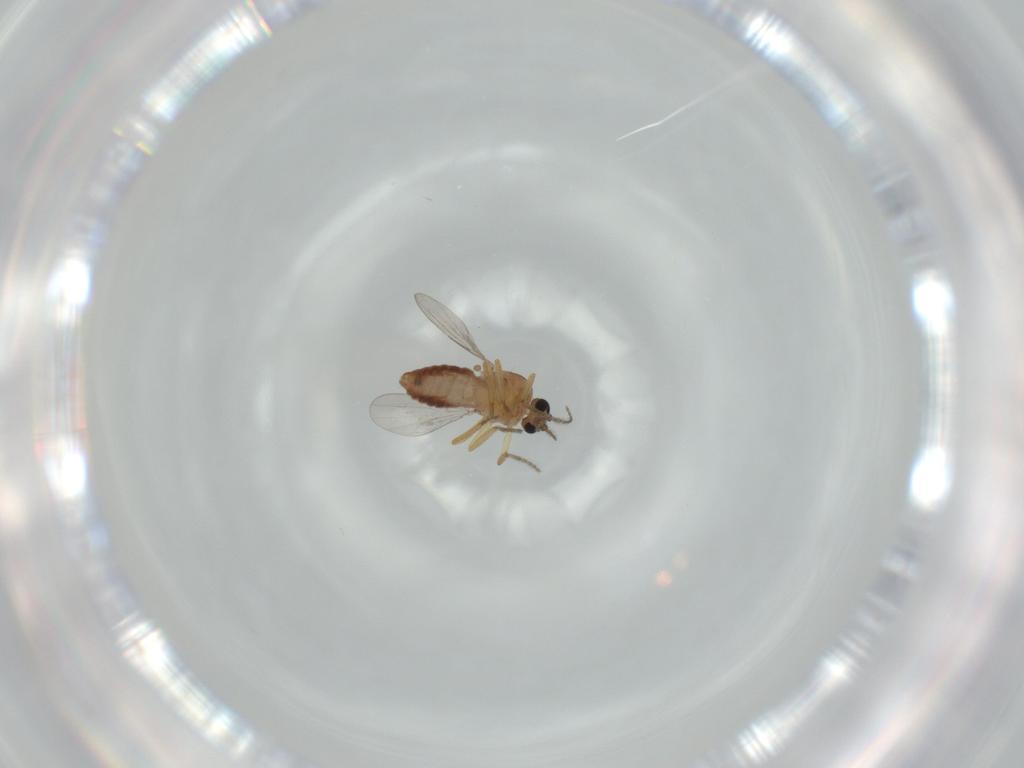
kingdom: Animalia
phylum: Arthropoda
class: Insecta
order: Diptera
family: Ceratopogonidae
